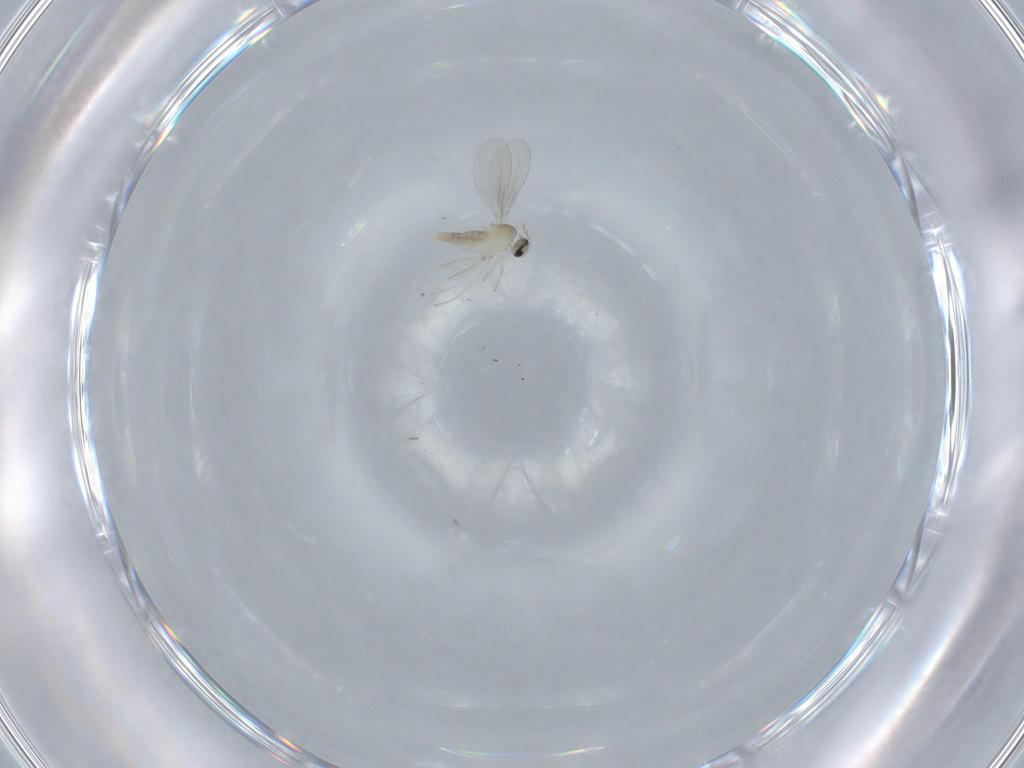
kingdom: Animalia
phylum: Arthropoda
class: Insecta
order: Diptera
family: Cecidomyiidae
